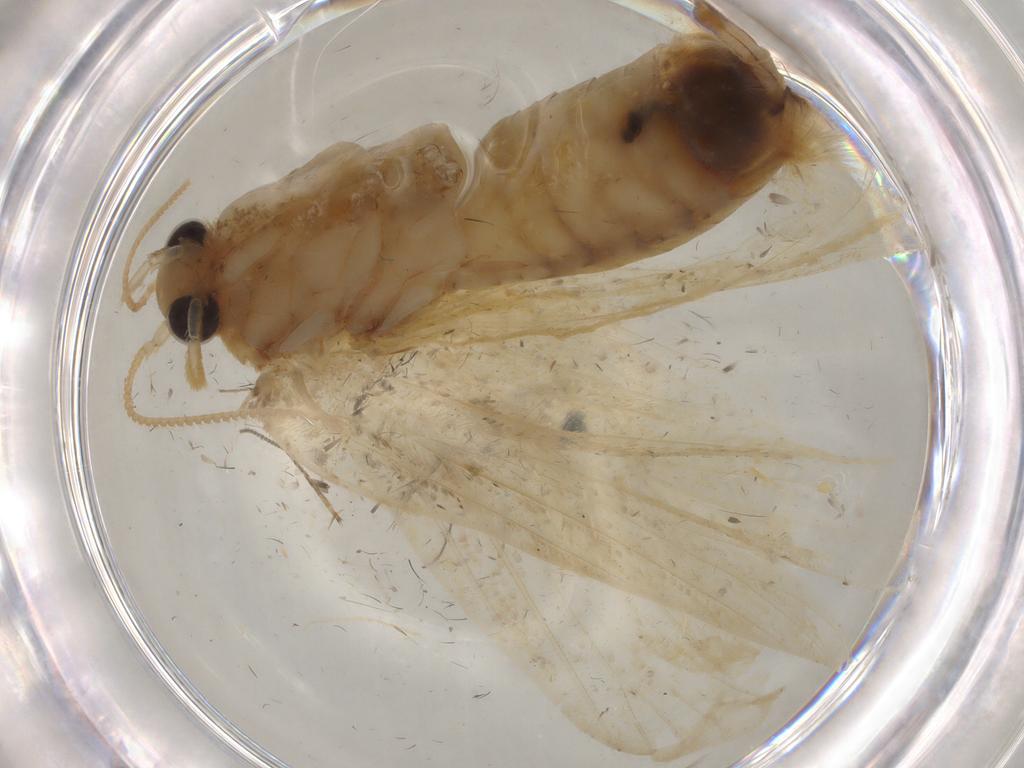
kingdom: Animalia
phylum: Arthropoda
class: Insecta
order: Lepidoptera
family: Psychidae
